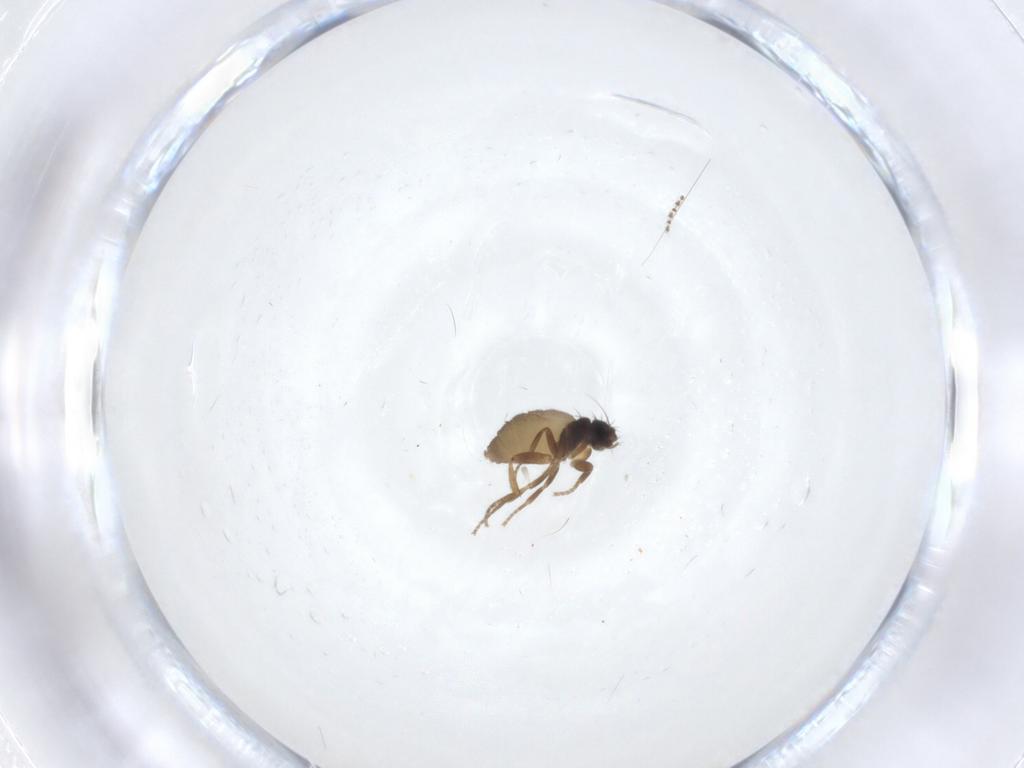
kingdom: Animalia
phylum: Arthropoda
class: Insecta
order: Diptera
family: Phoridae
